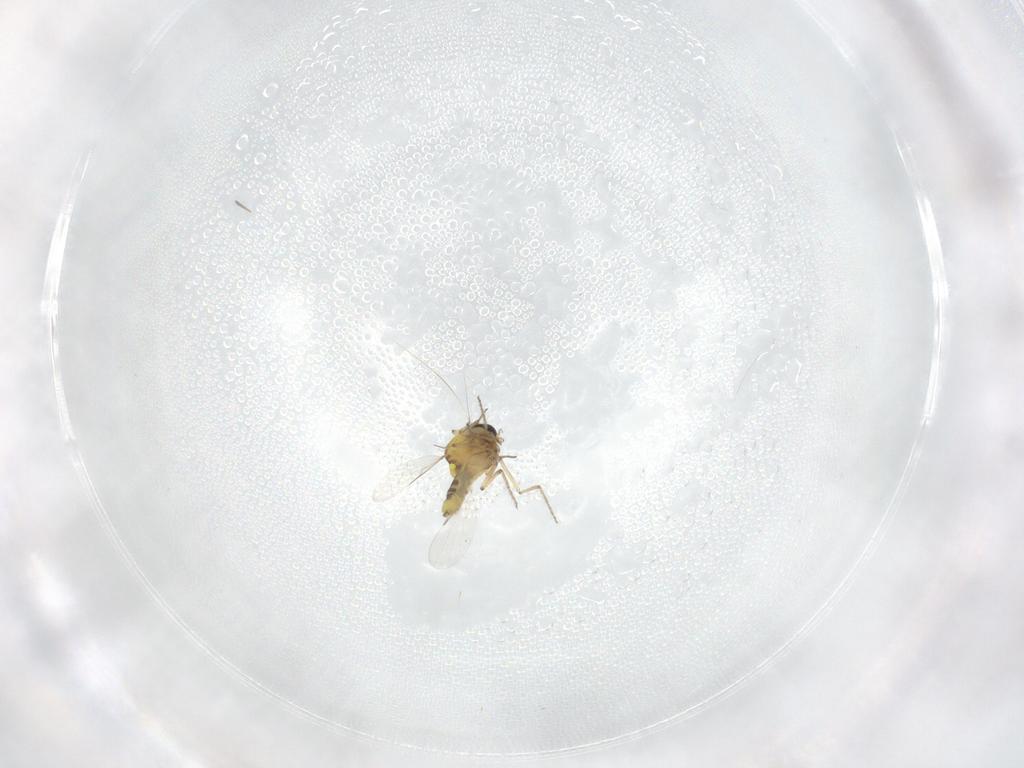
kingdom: Animalia
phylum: Arthropoda
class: Insecta
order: Diptera
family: Ceratopogonidae
